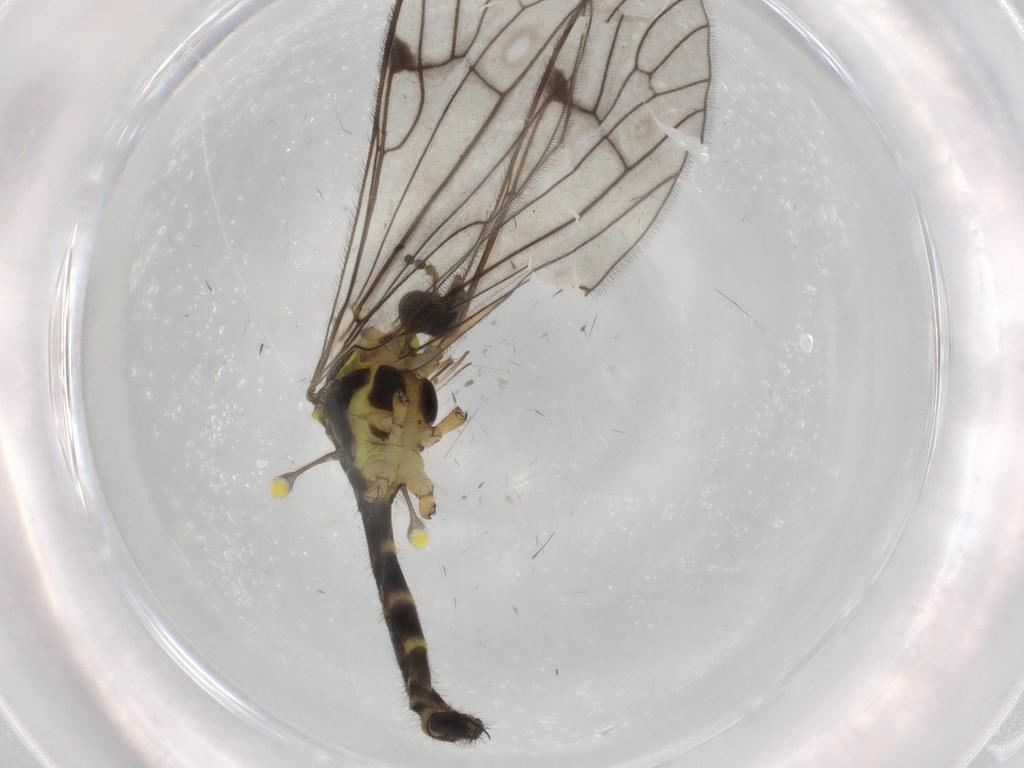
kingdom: Animalia
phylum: Arthropoda
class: Insecta
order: Diptera
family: Limoniidae
